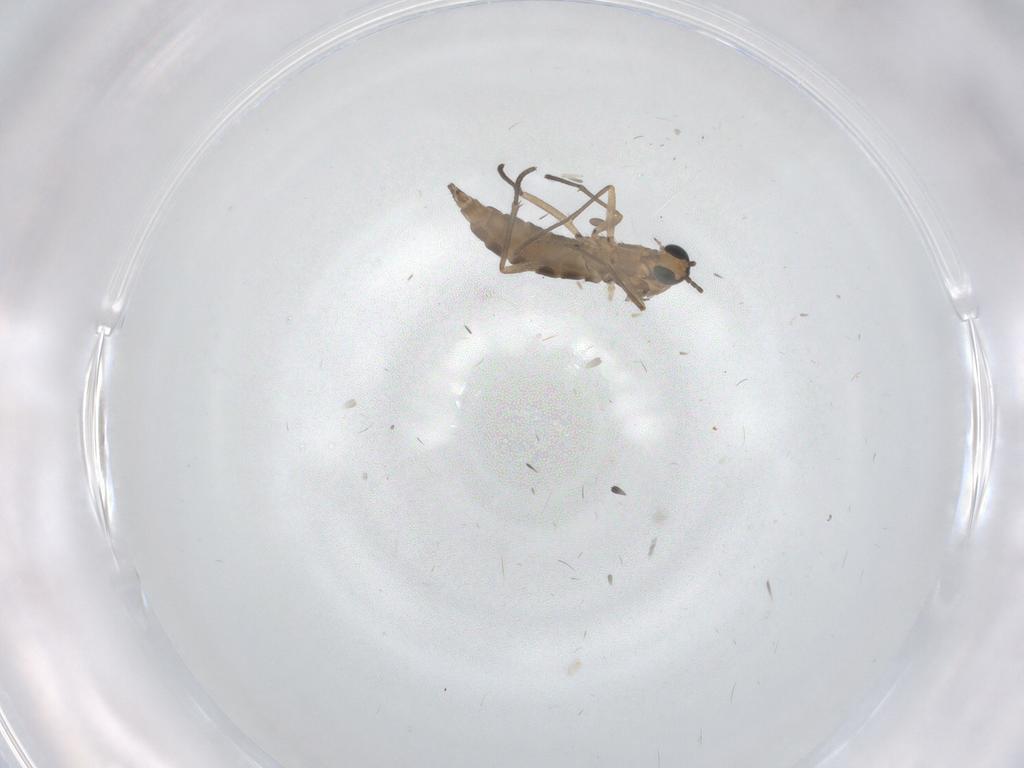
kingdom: Animalia
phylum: Arthropoda
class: Insecta
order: Diptera
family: Sciaridae
